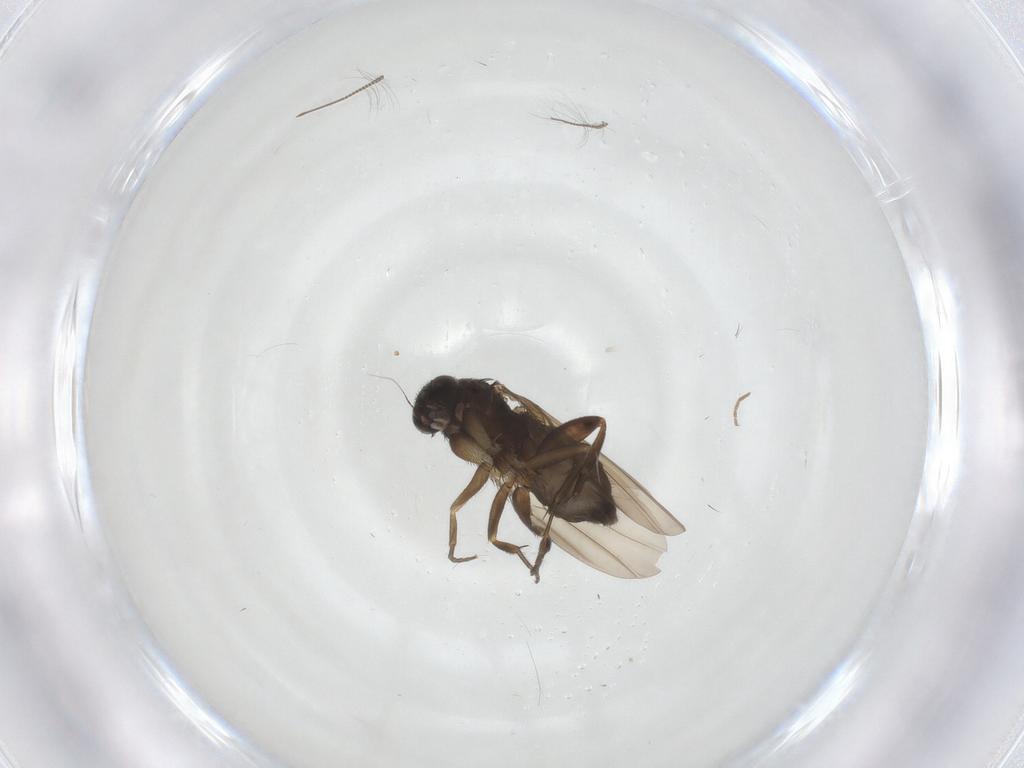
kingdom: Animalia
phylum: Arthropoda
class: Insecta
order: Diptera
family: Phoridae
